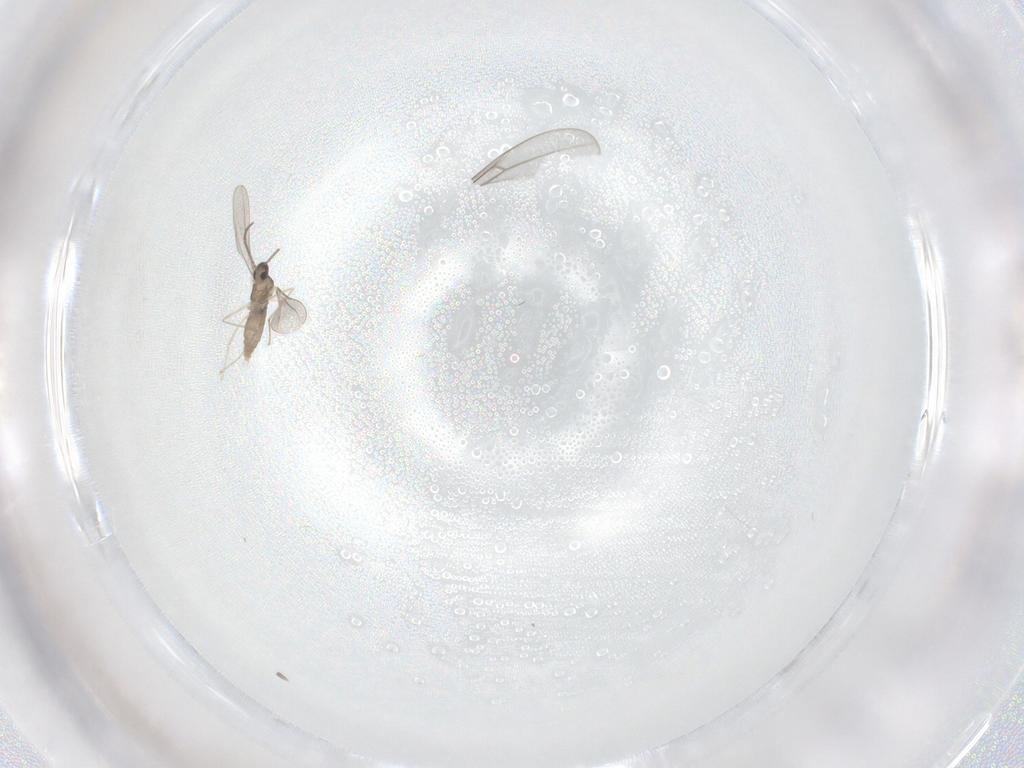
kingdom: Animalia
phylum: Arthropoda
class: Insecta
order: Diptera
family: Cecidomyiidae
